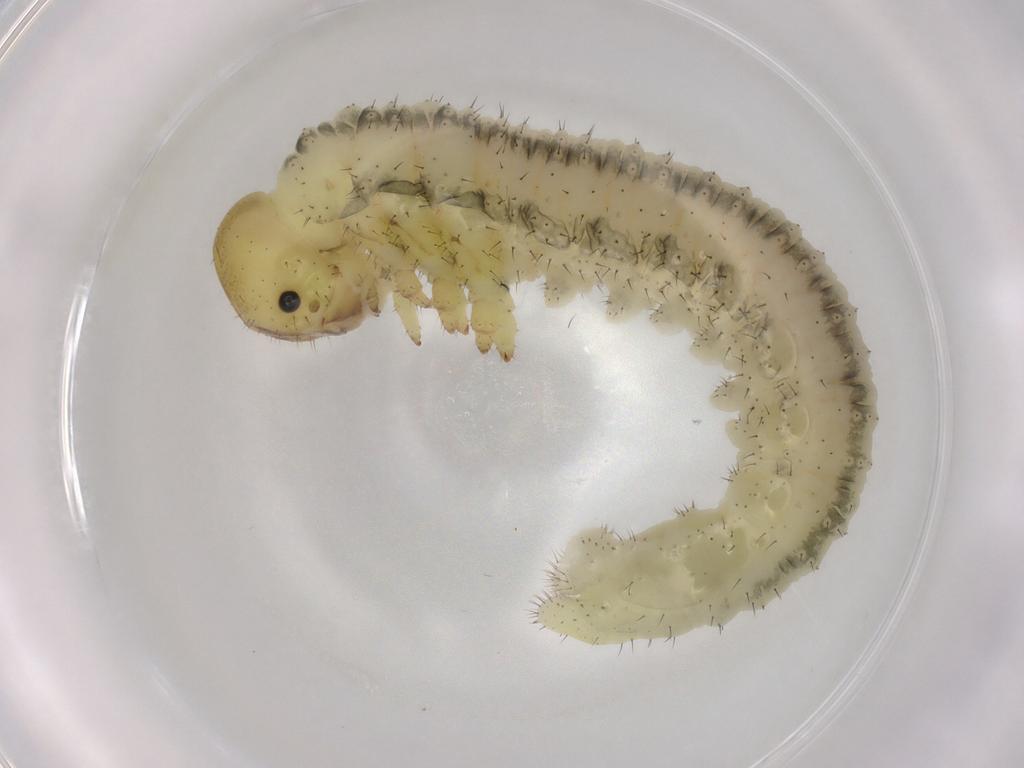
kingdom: Animalia
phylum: Arthropoda
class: Insecta
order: Hymenoptera
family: Tenthredinidae
